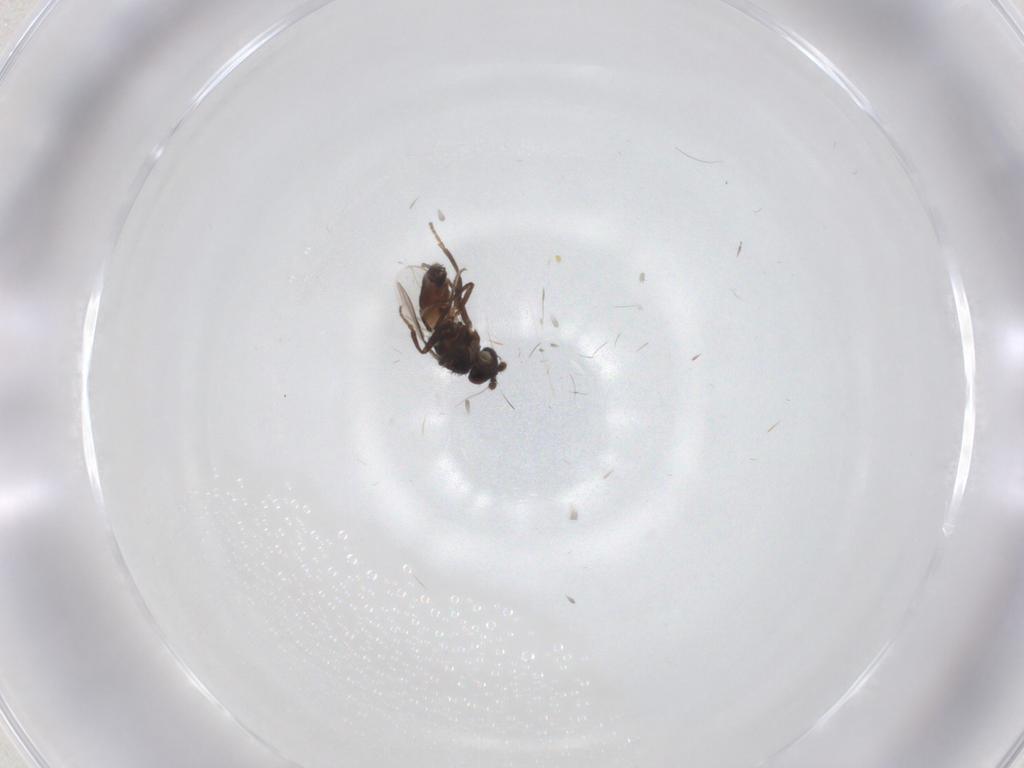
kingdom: Animalia
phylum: Arthropoda
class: Insecta
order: Diptera
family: Sphaeroceridae
